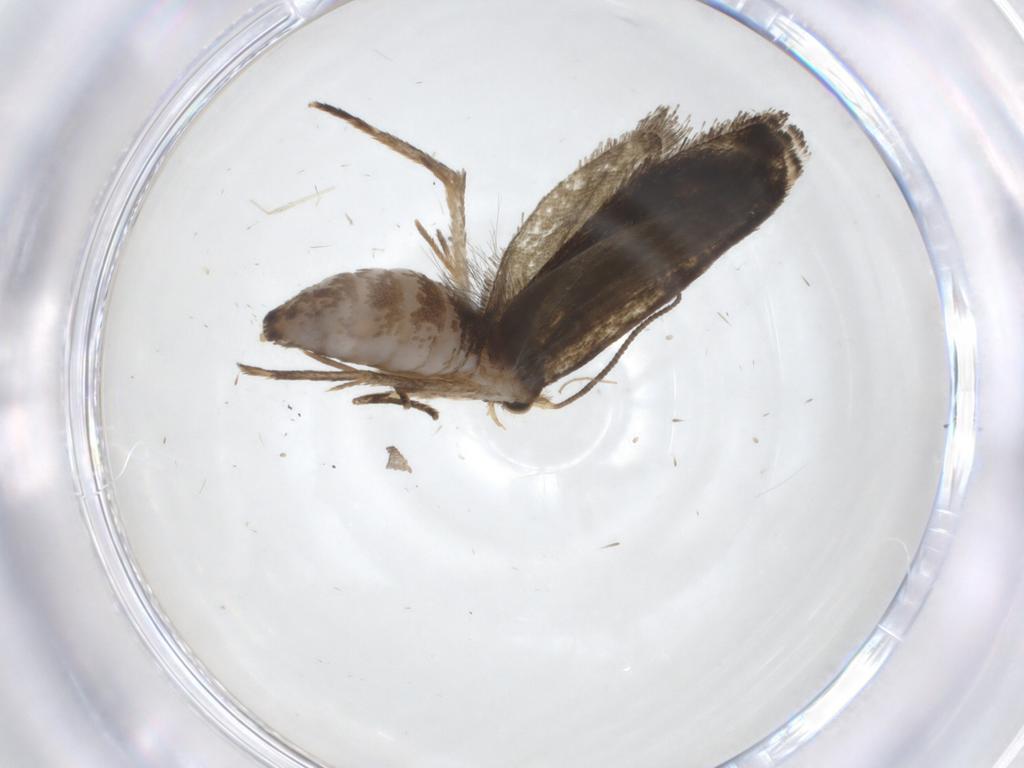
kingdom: Animalia
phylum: Arthropoda
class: Insecta
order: Lepidoptera
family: Tineidae
